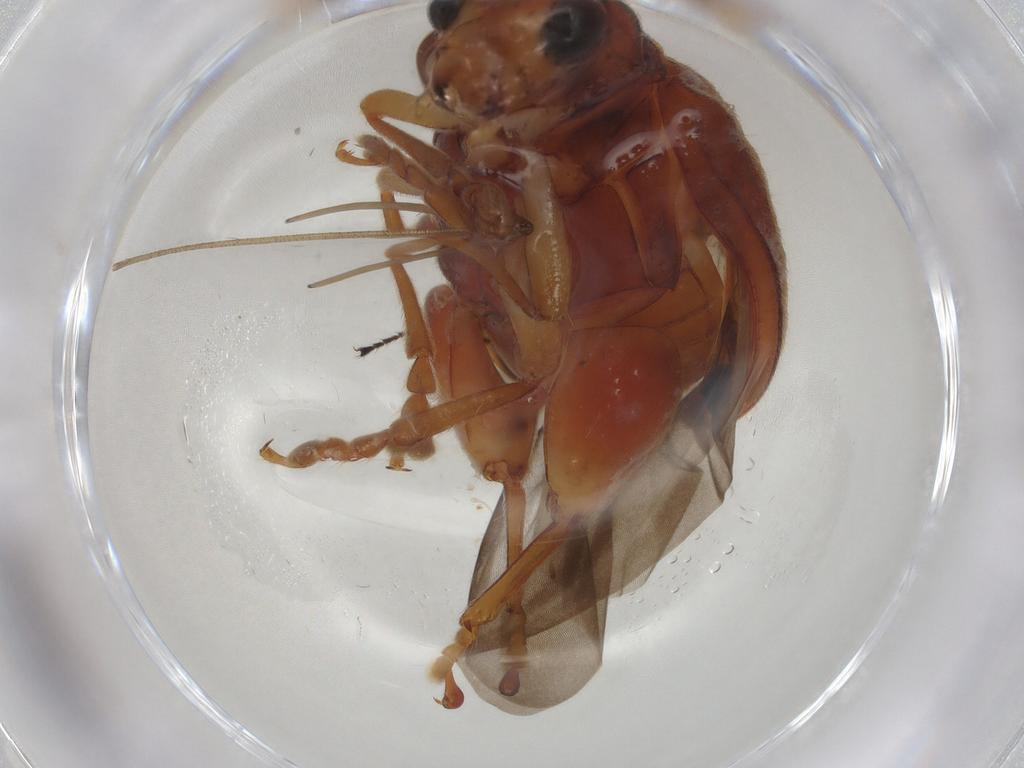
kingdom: Animalia
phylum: Arthropoda
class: Insecta
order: Coleoptera
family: Chrysomelidae
